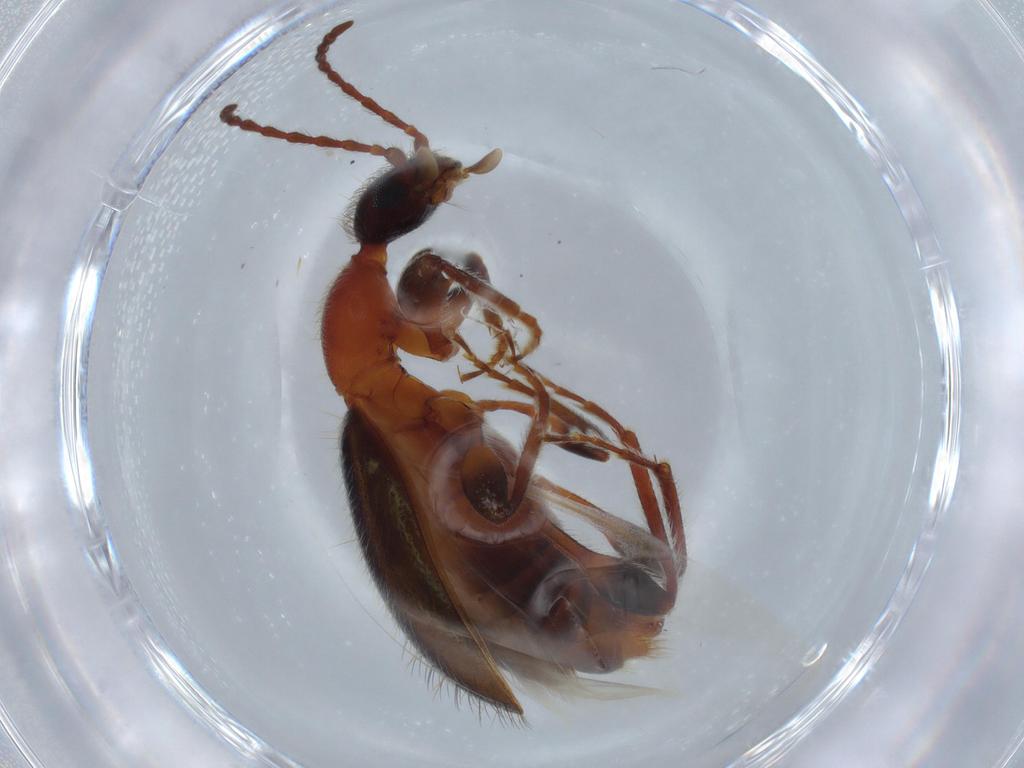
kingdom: Animalia
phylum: Arthropoda
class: Insecta
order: Coleoptera
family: Anthicidae
